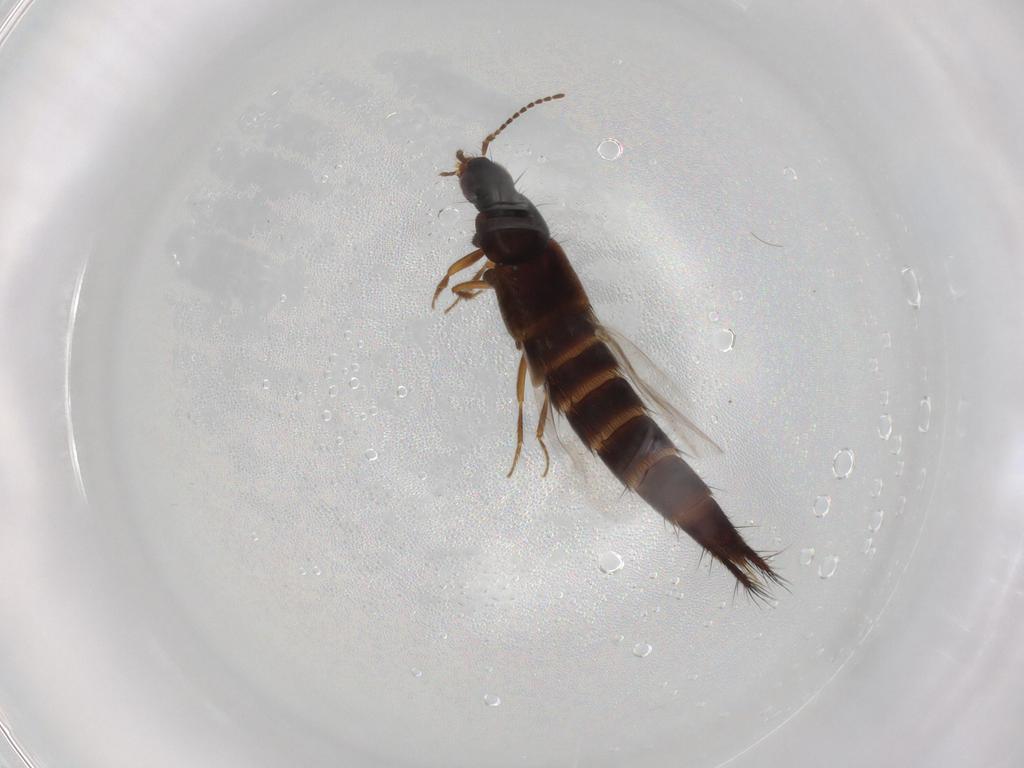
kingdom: Animalia
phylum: Arthropoda
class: Insecta
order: Coleoptera
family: Staphylinidae
